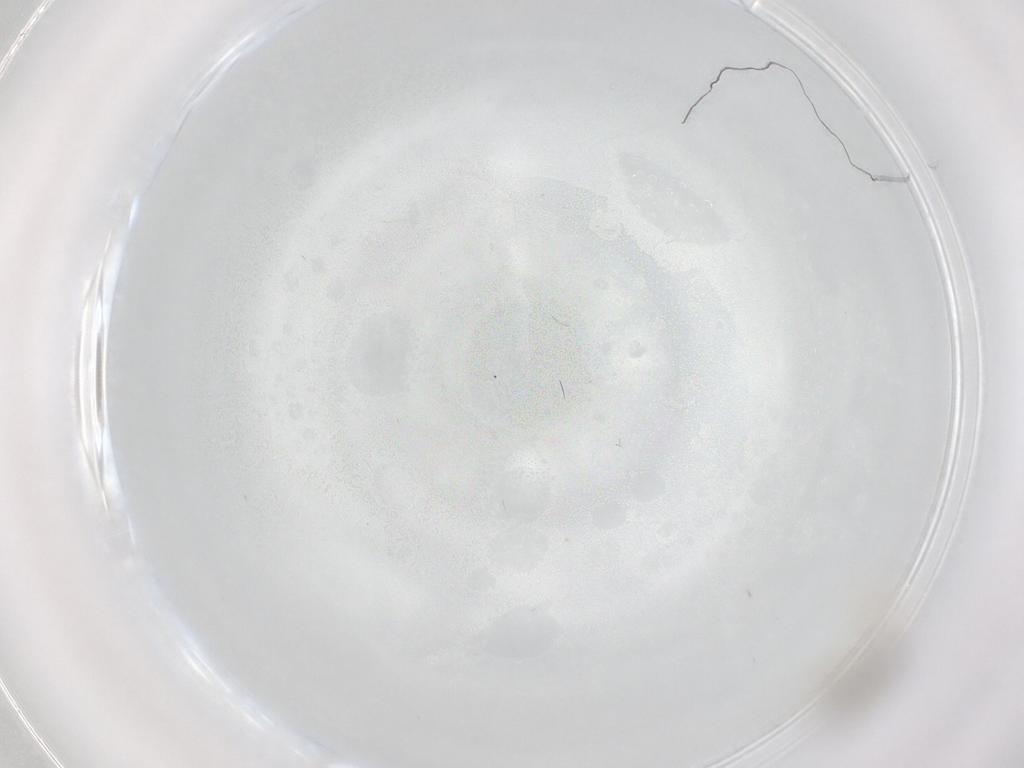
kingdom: Animalia
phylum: Arthropoda
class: Insecta
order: Diptera
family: Cecidomyiidae
